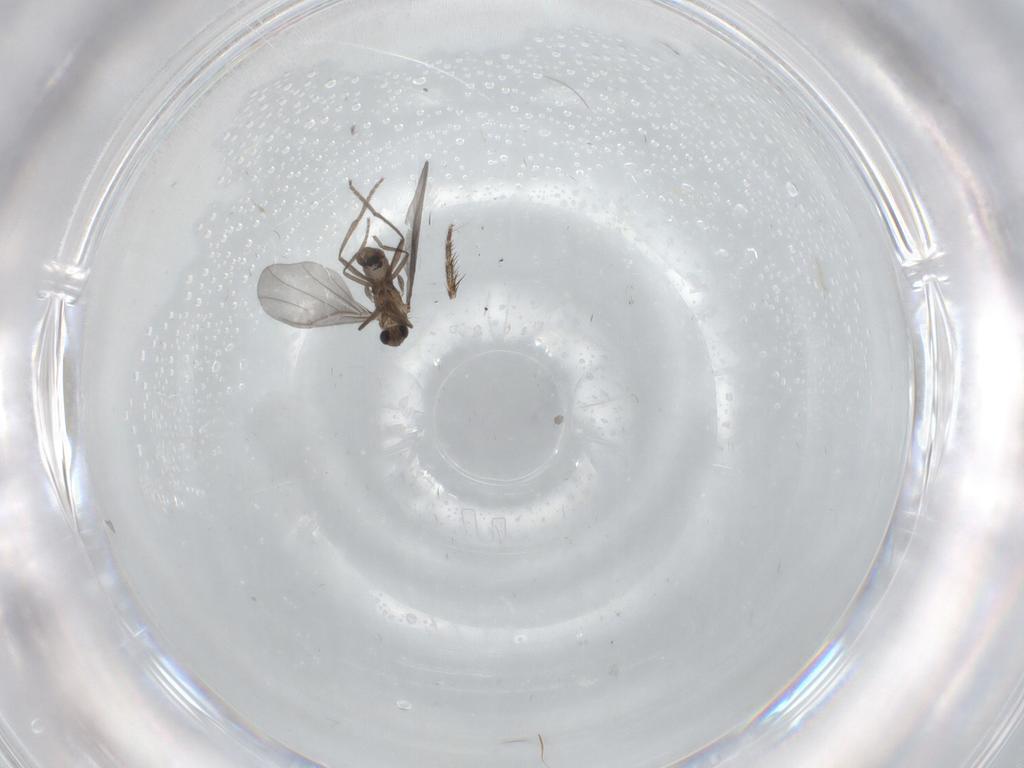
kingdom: Animalia
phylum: Arthropoda
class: Insecta
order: Diptera
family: Phoridae
